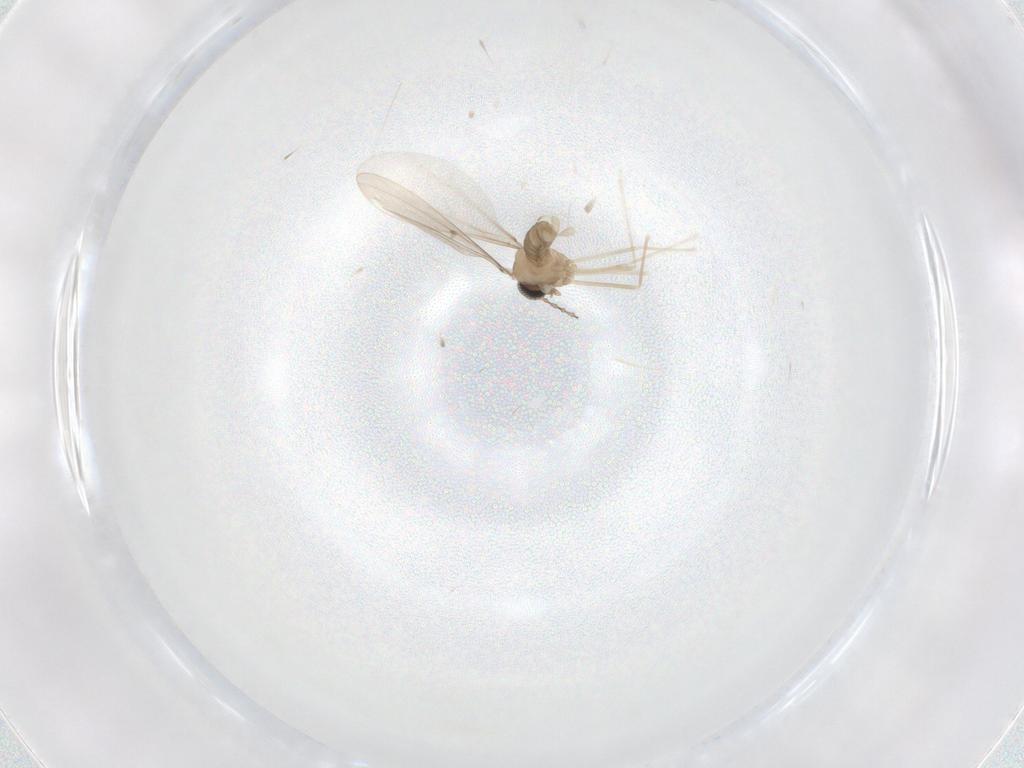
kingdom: Animalia
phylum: Arthropoda
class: Insecta
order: Diptera
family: Cecidomyiidae
